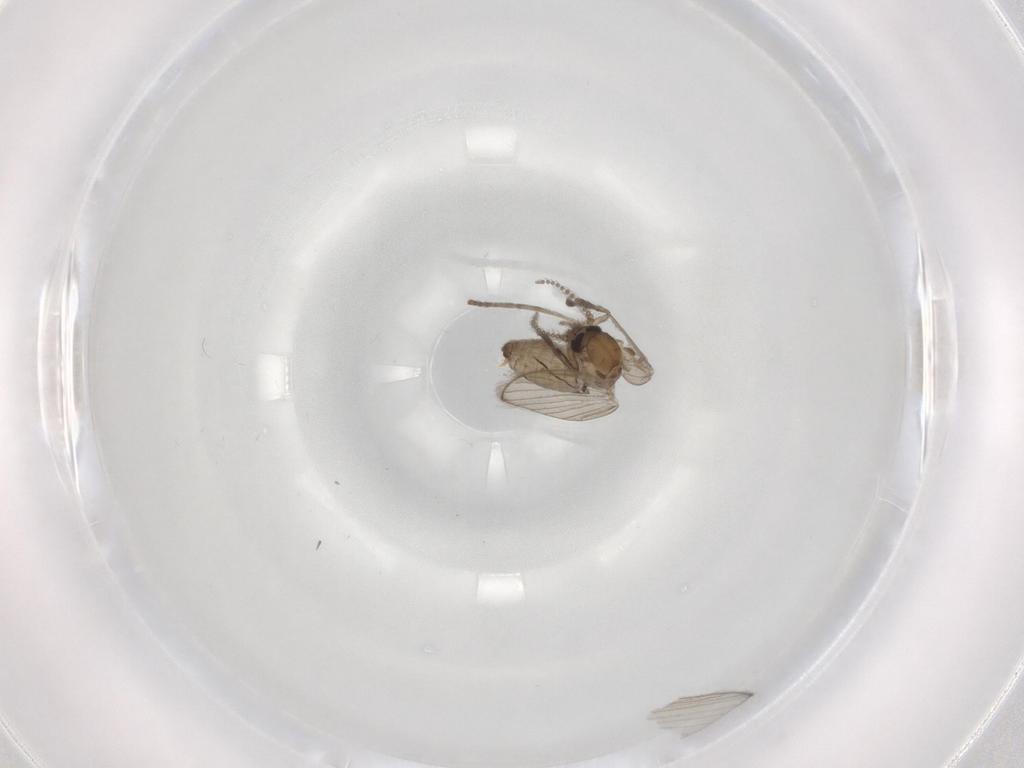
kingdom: Animalia
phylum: Arthropoda
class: Insecta
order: Diptera
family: Psychodidae
